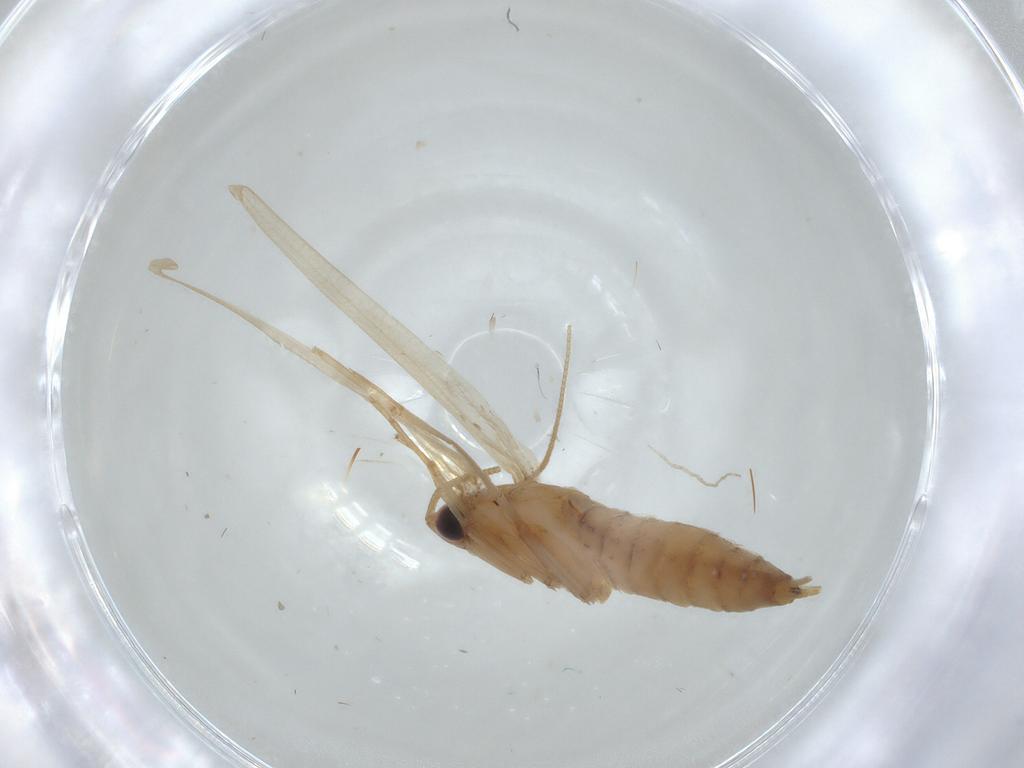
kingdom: Animalia
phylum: Arthropoda
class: Insecta
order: Lepidoptera
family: Tineidae
